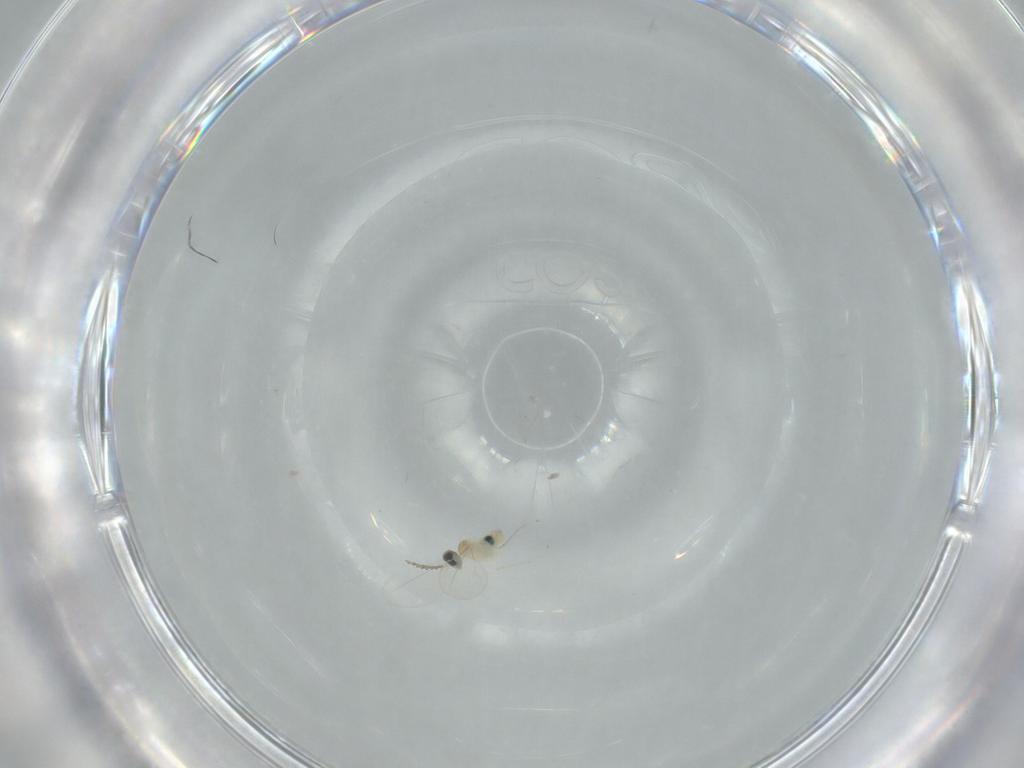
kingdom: Animalia
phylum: Arthropoda
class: Insecta
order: Diptera
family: Cecidomyiidae
